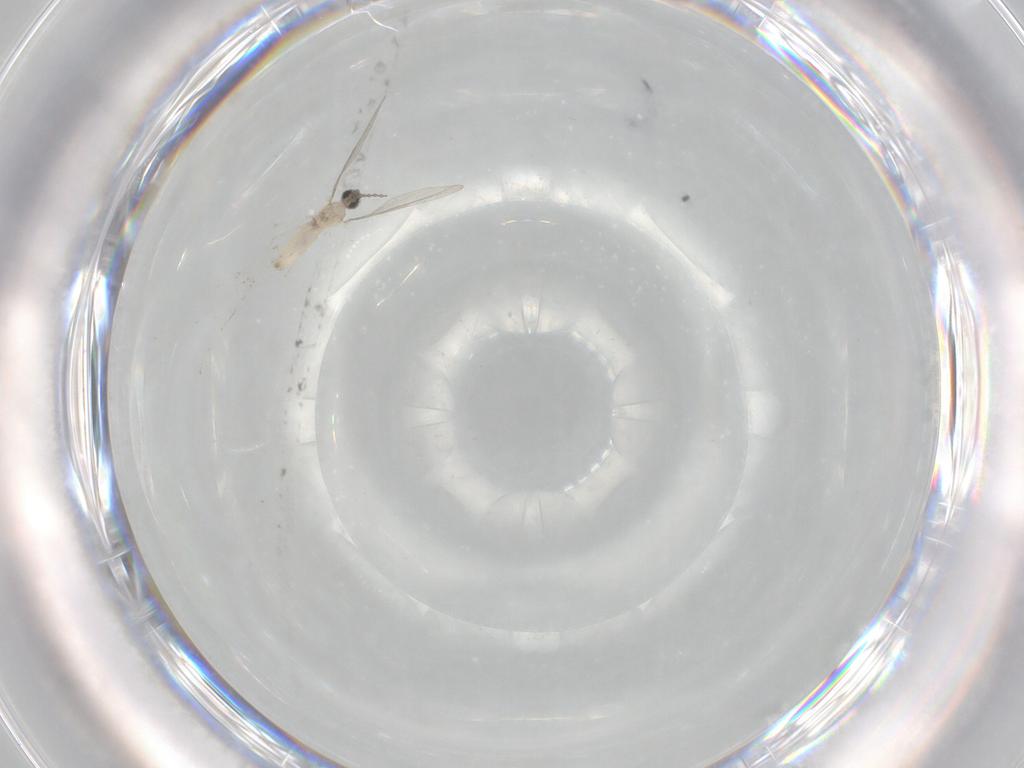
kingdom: Animalia
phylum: Arthropoda
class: Insecta
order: Diptera
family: Cecidomyiidae
